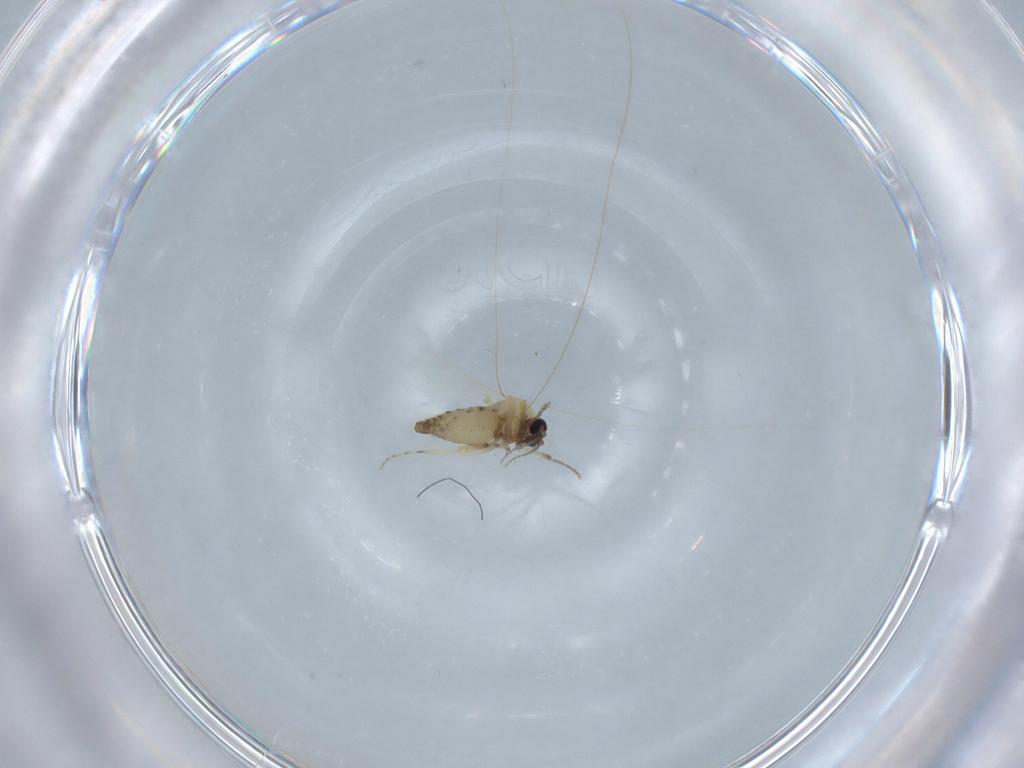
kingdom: Animalia
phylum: Arthropoda
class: Insecta
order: Diptera
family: Ceratopogonidae
